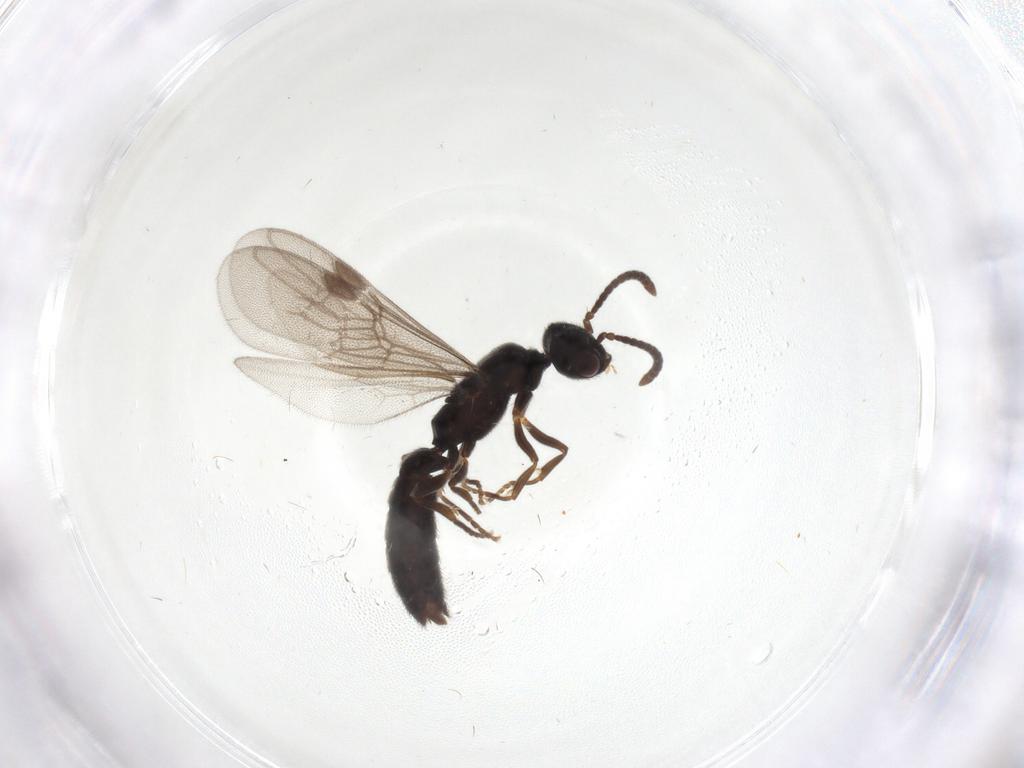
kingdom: Animalia
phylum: Arthropoda
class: Insecta
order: Hymenoptera
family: Formicidae
